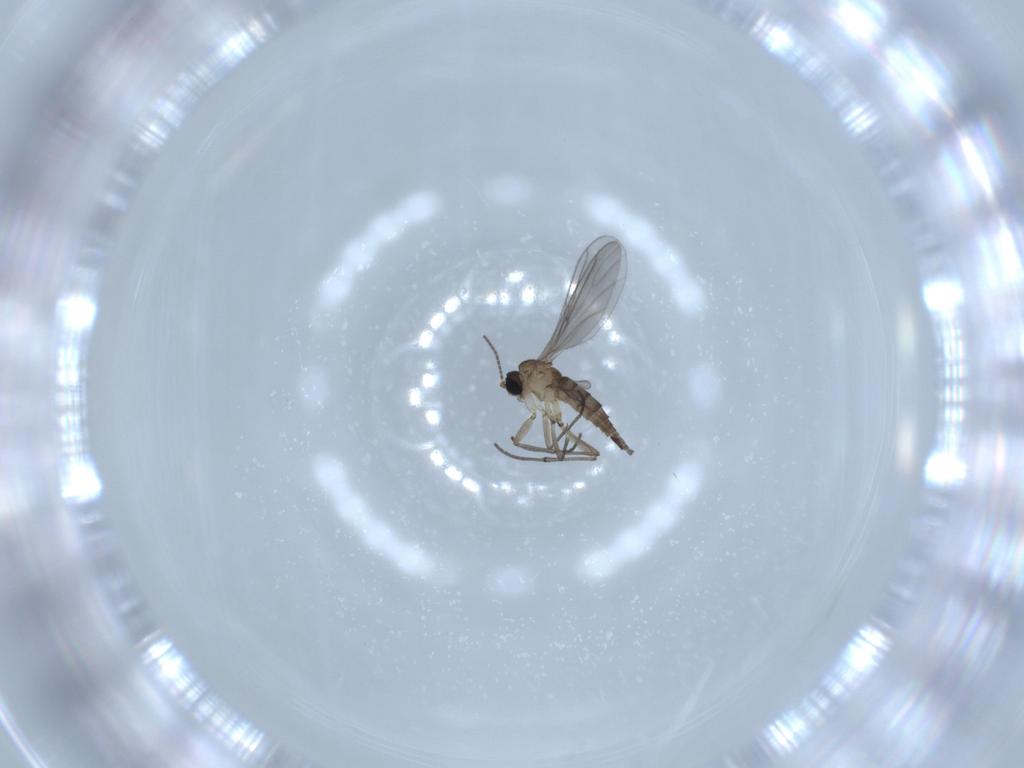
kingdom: Animalia
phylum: Arthropoda
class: Insecta
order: Diptera
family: Sciaridae
